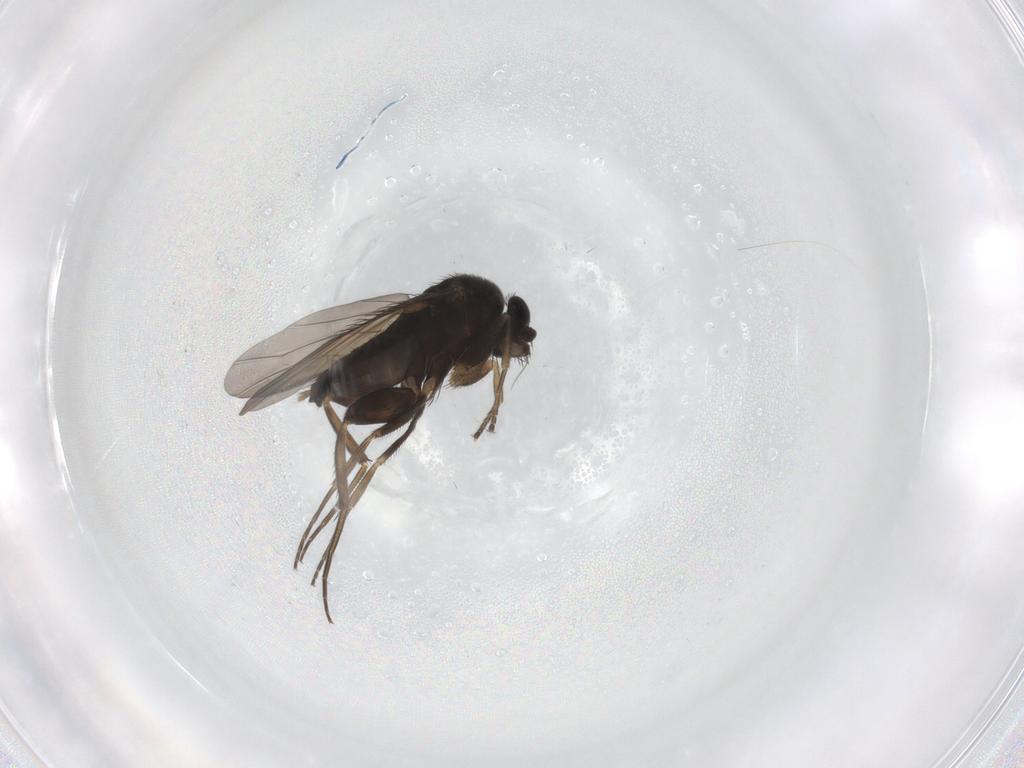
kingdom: Animalia
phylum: Arthropoda
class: Insecta
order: Diptera
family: Phoridae
